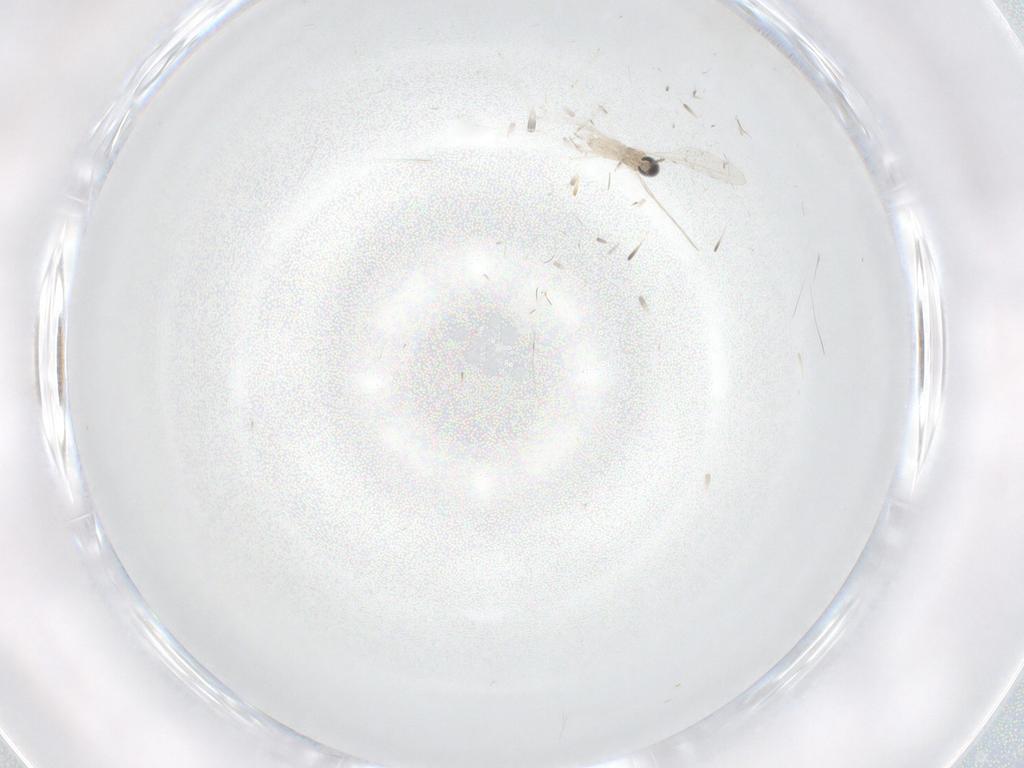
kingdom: Animalia
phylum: Arthropoda
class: Insecta
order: Diptera
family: Cecidomyiidae
